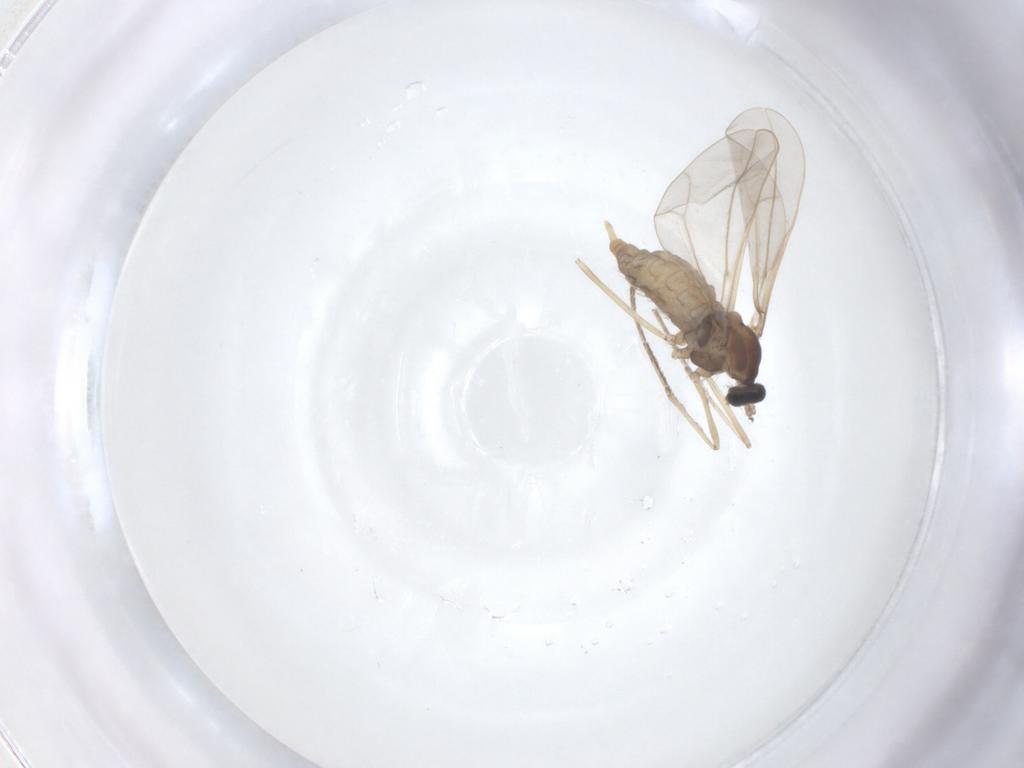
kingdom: Animalia
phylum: Arthropoda
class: Insecta
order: Diptera
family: Cecidomyiidae
